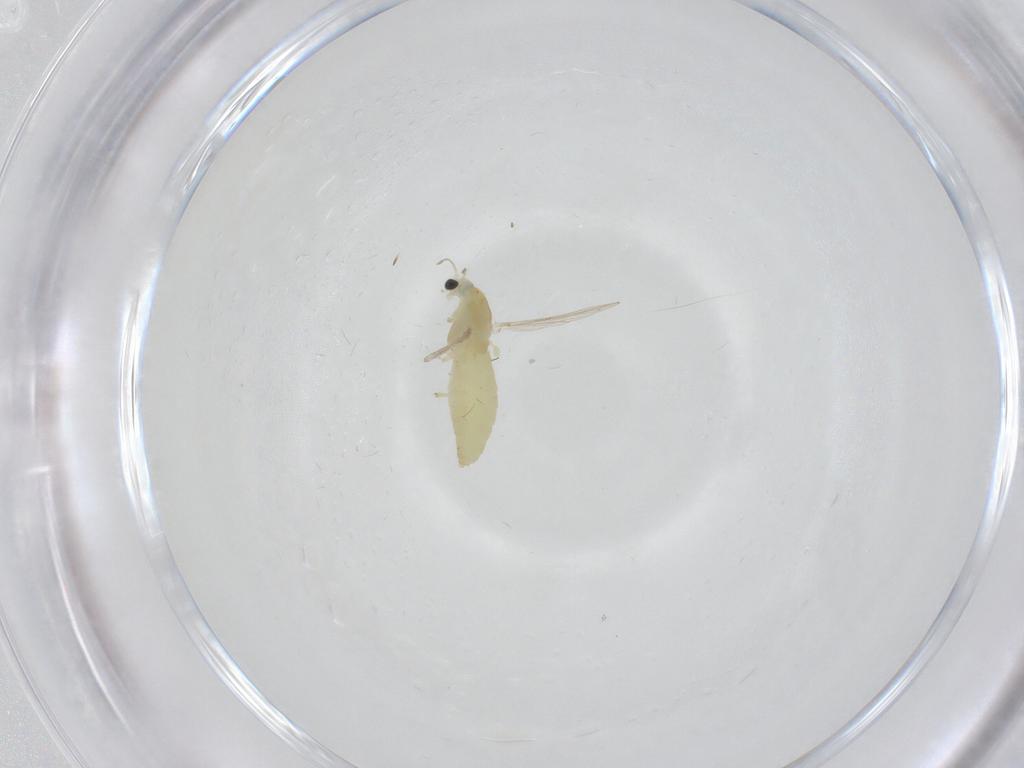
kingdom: Animalia
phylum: Arthropoda
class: Insecta
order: Diptera
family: Chironomidae
